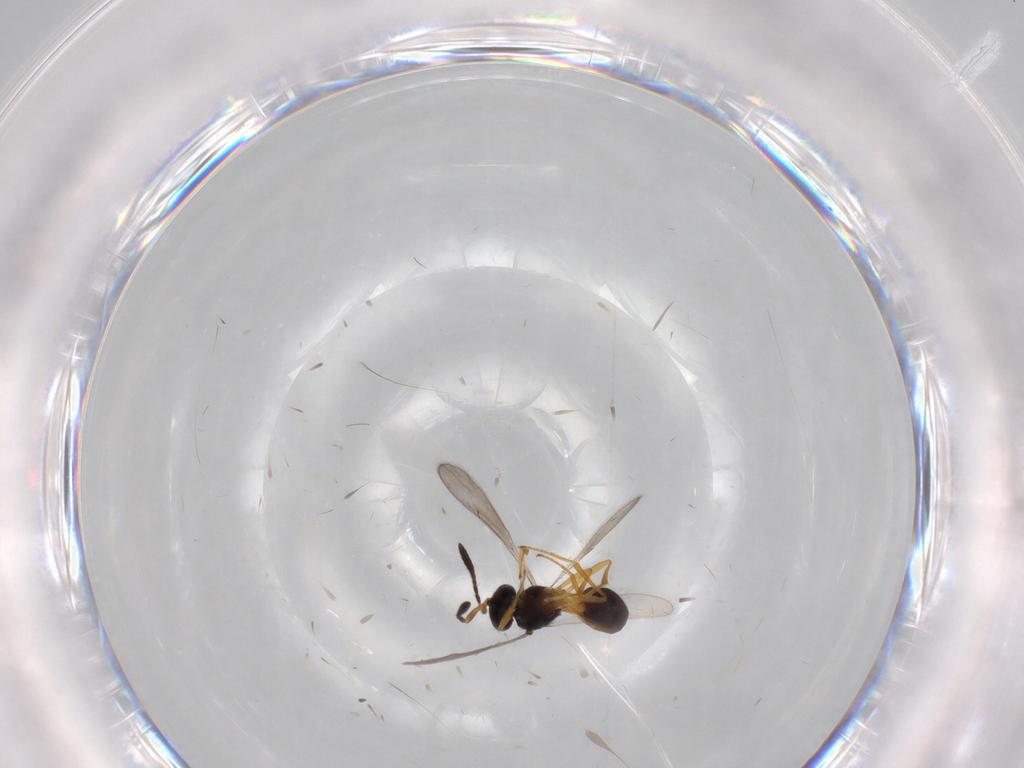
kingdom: Animalia
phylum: Arthropoda
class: Insecta
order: Hymenoptera
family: Scelionidae
